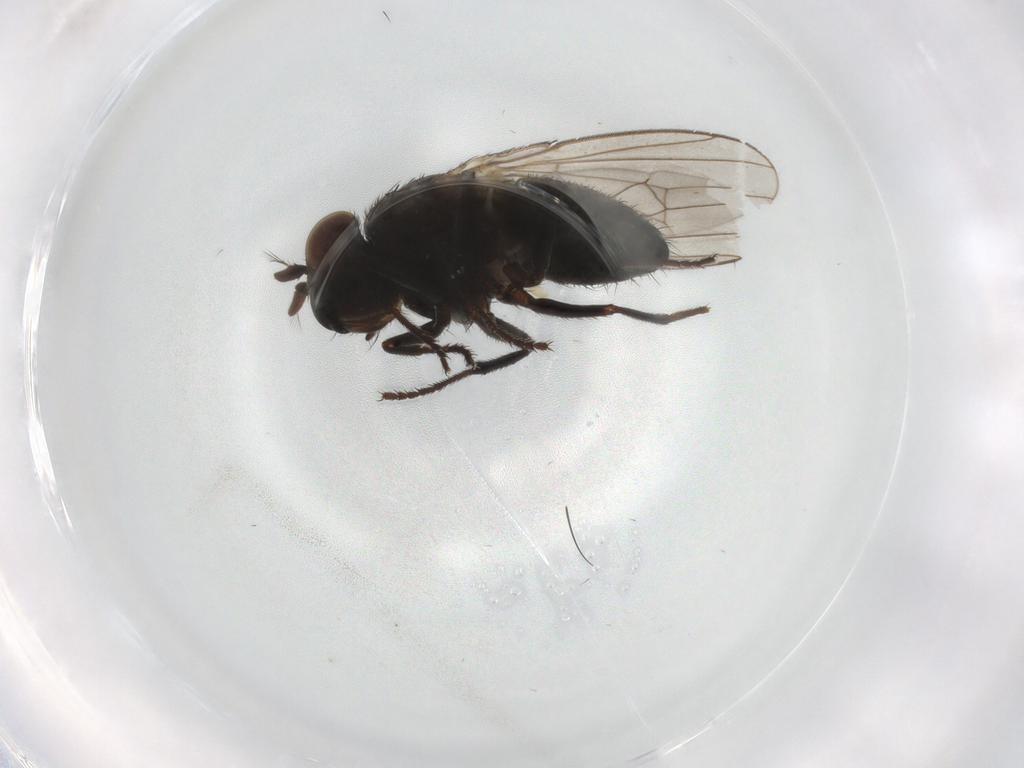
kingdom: Animalia
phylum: Arthropoda
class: Insecta
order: Diptera
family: Ephydridae
